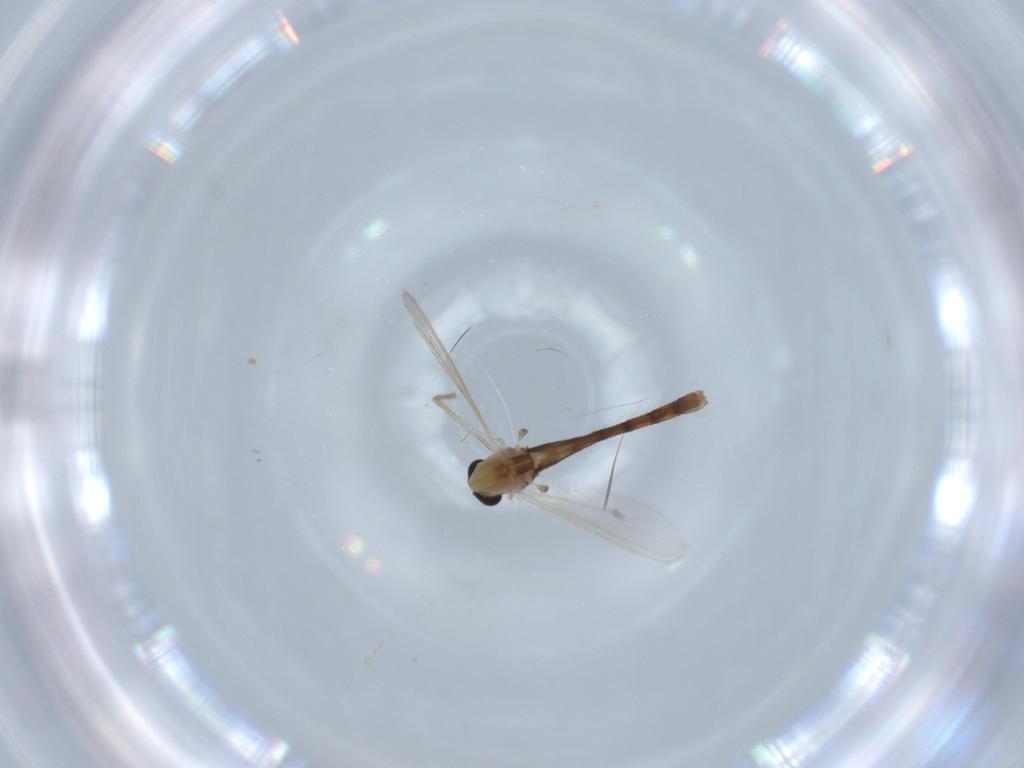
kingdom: Animalia
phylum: Arthropoda
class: Insecta
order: Diptera
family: Chironomidae
